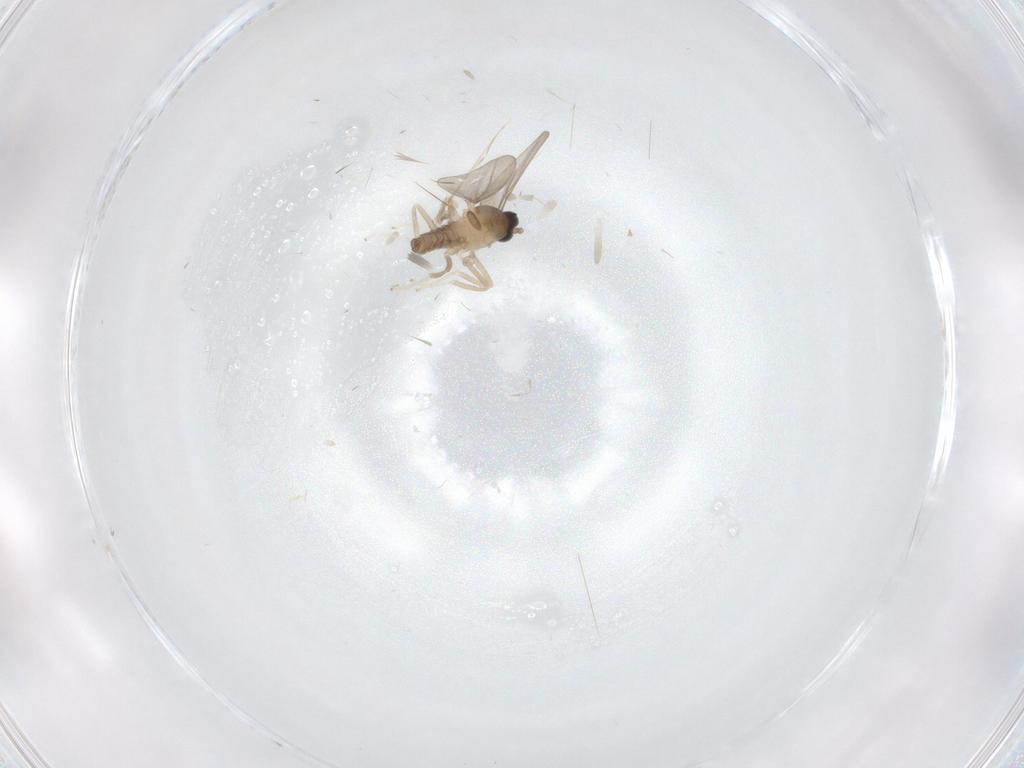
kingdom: Animalia
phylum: Arthropoda
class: Insecta
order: Diptera
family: Cecidomyiidae
